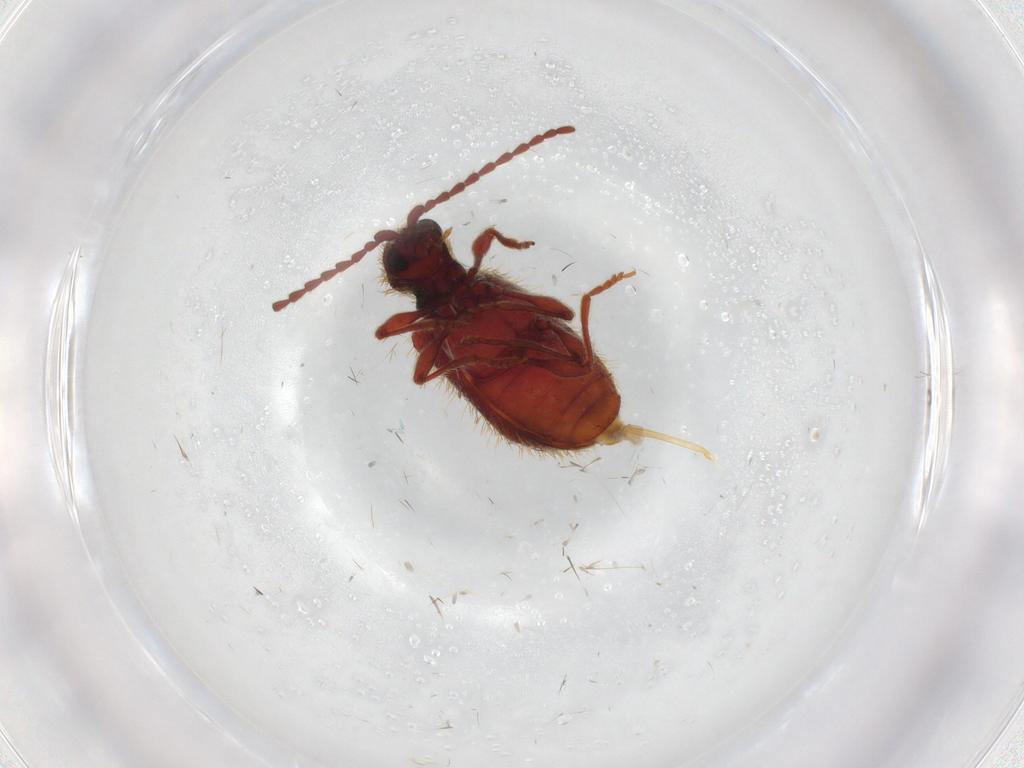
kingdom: Animalia
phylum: Arthropoda
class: Insecta
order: Coleoptera
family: Ptinidae
